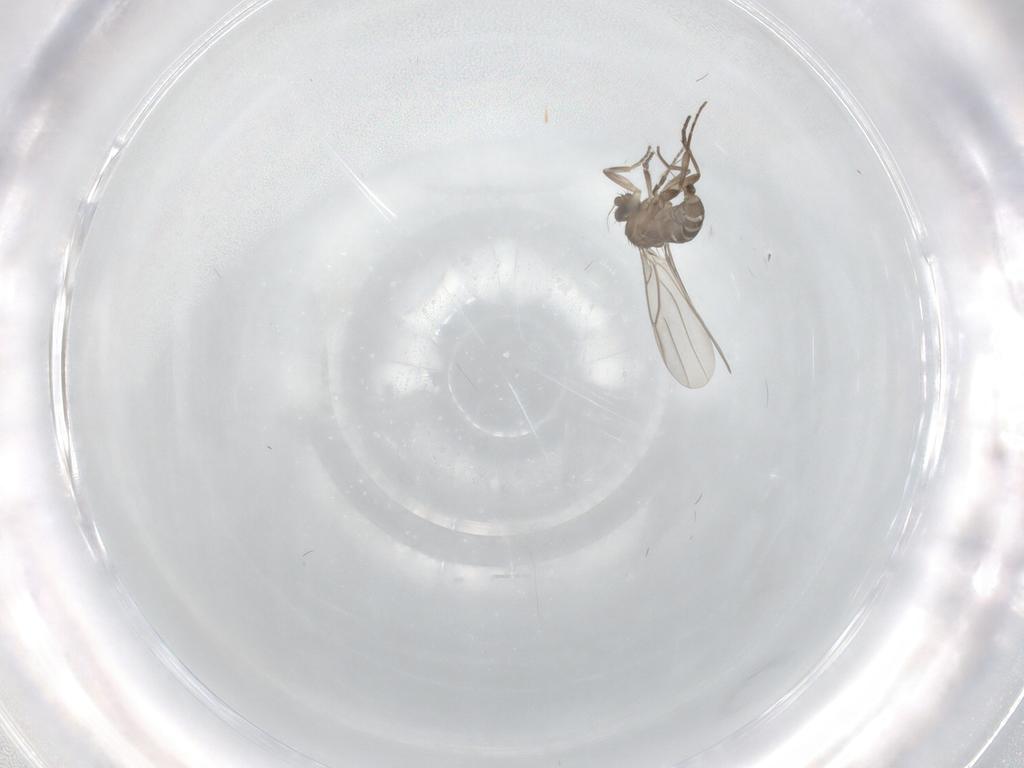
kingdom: Animalia
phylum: Arthropoda
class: Insecta
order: Diptera
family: Phoridae
